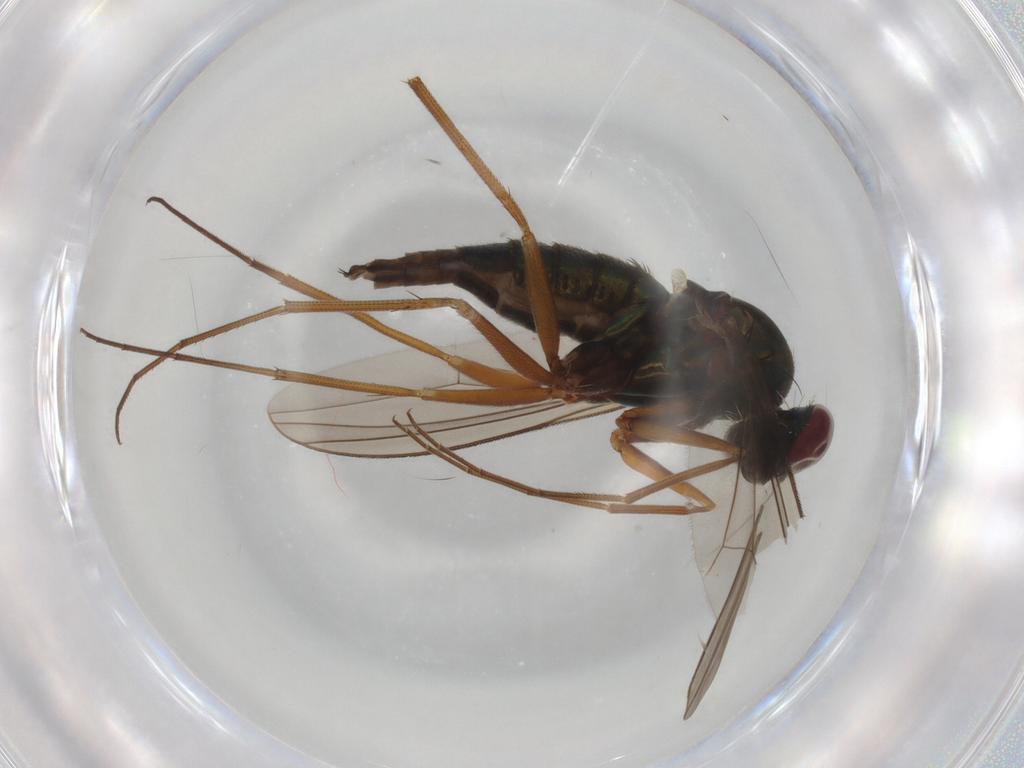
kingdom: Animalia
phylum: Arthropoda
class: Insecta
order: Diptera
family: Dolichopodidae
